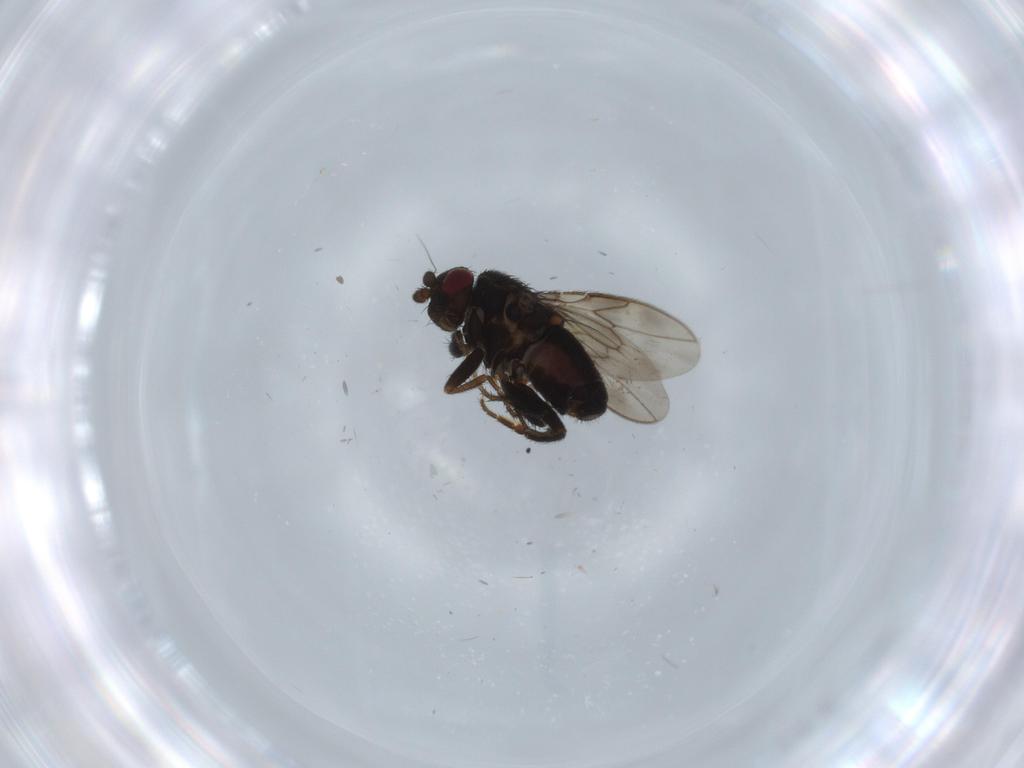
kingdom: Animalia
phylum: Arthropoda
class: Insecta
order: Diptera
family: Sphaeroceridae
